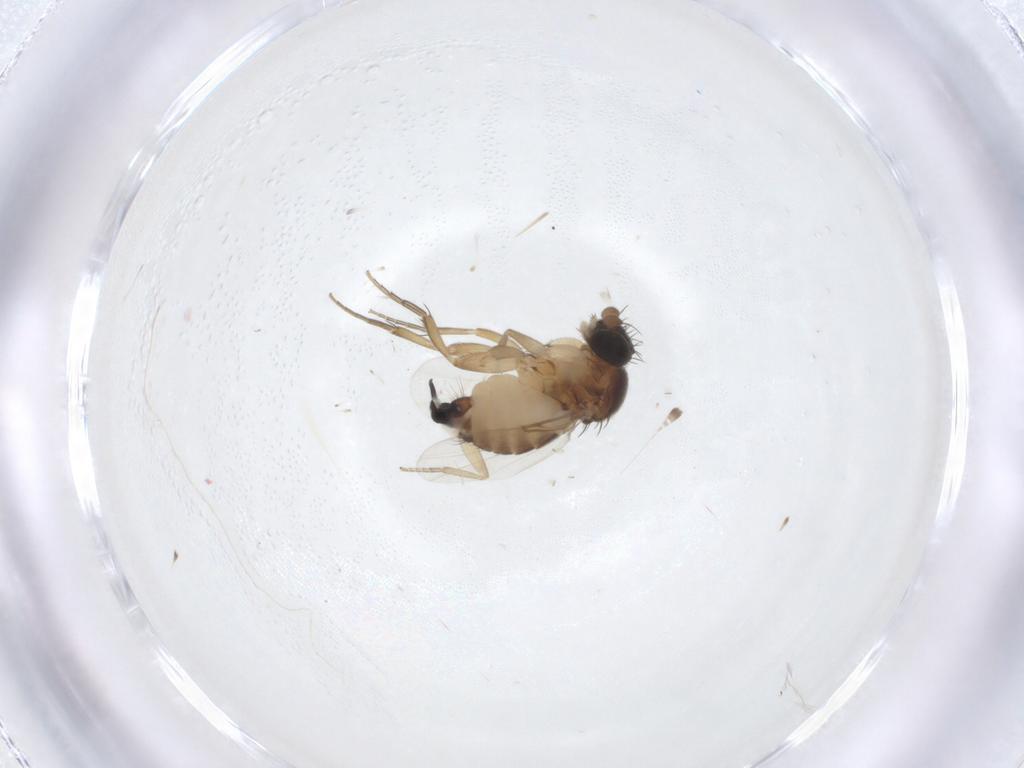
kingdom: Animalia
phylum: Arthropoda
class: Insecta
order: Diptera
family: Phoridae
